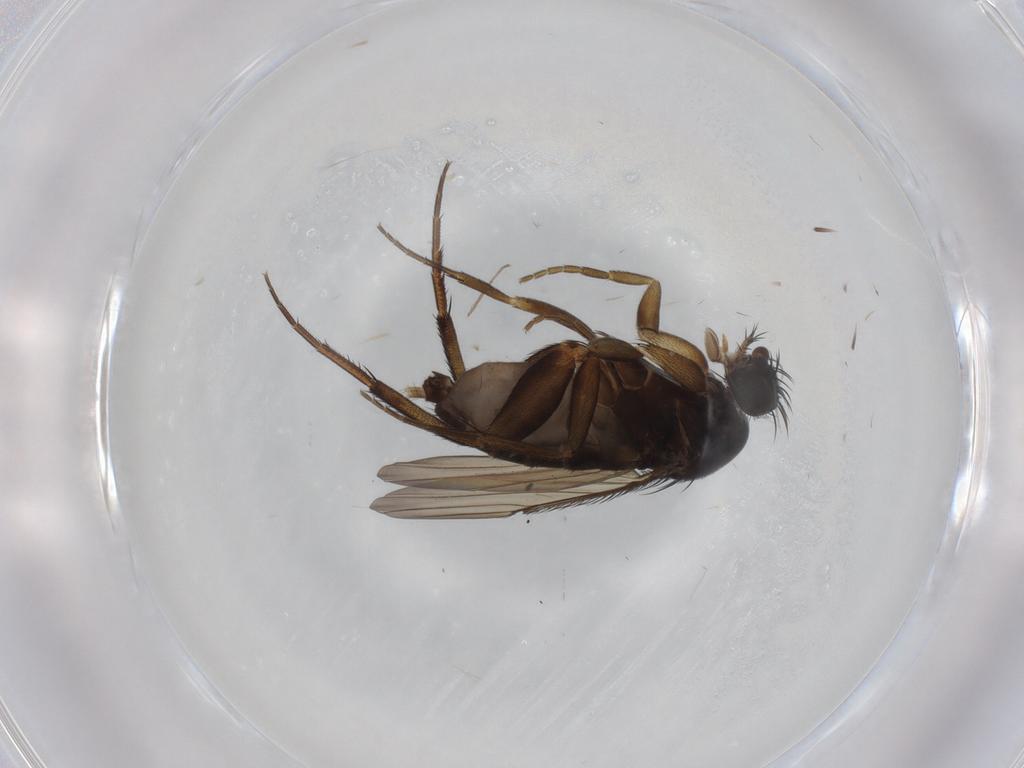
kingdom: Animalia
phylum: Arthropoda
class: Insecta
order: Diptera
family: Phoridae
